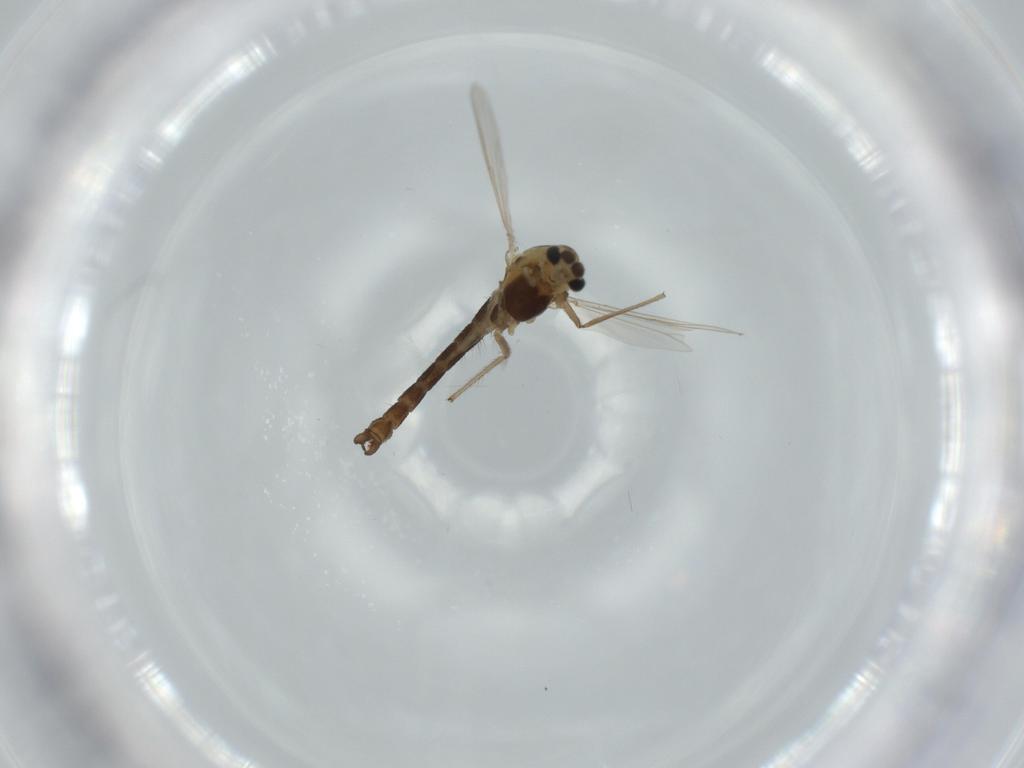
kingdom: Animalia
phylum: Arthropoda
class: Insecta
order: Diptera
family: Chironomidae
